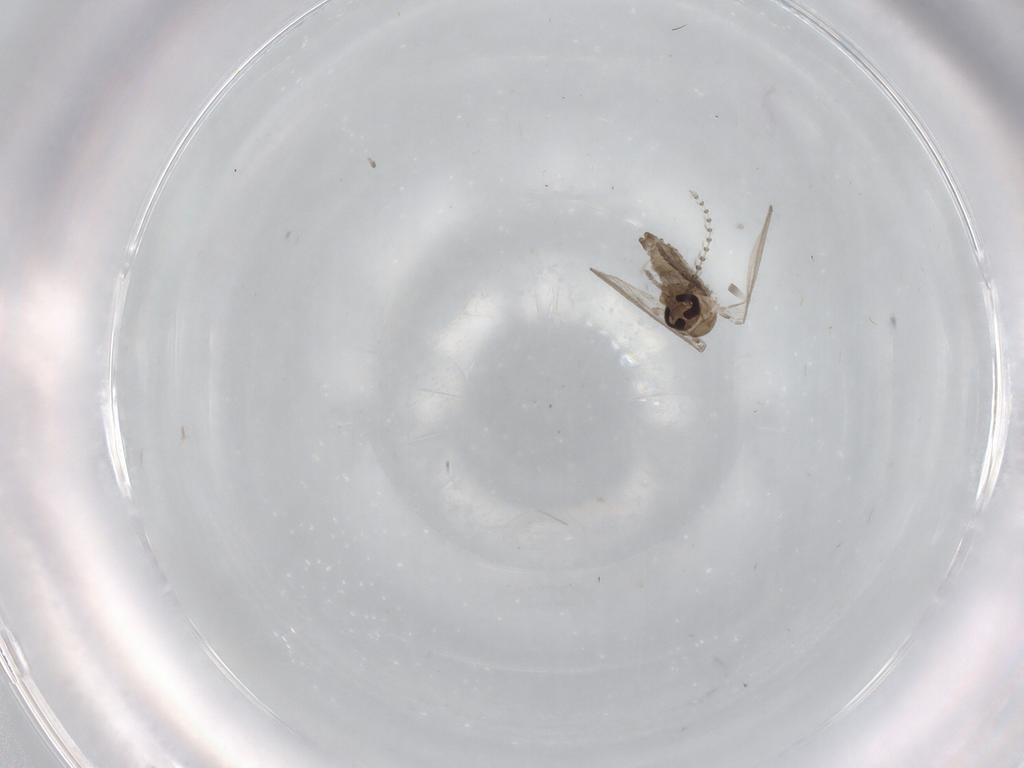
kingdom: Animalia
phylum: Arthropoda
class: Insecta
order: Diptera
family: Psychodidae
